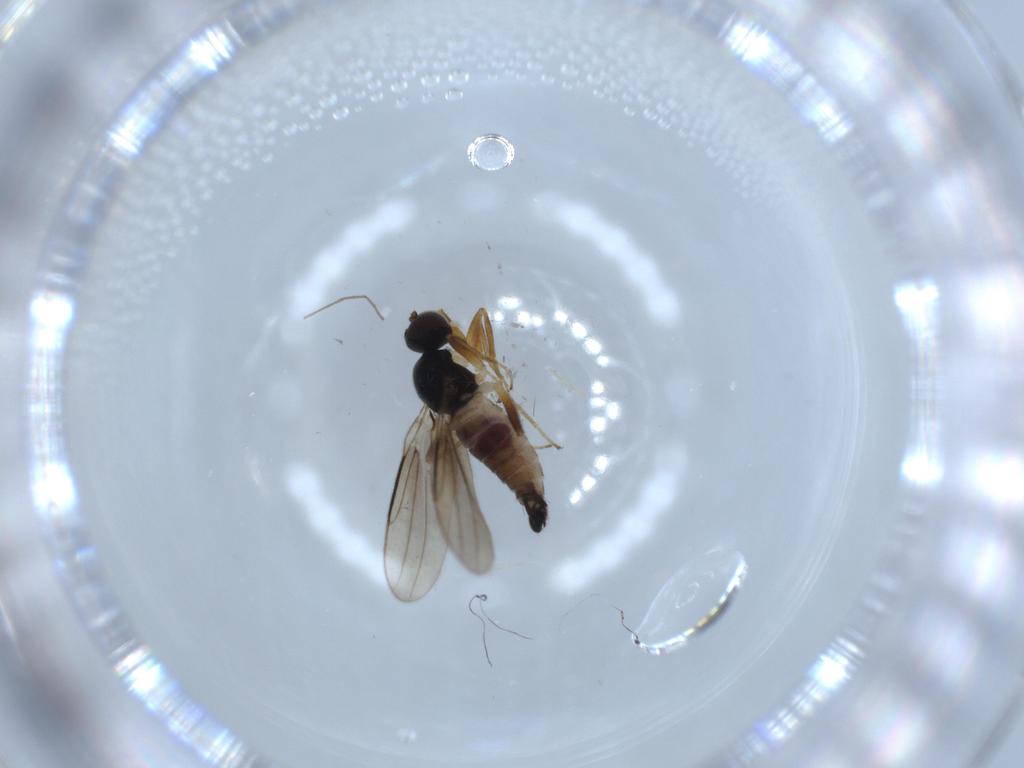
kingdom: Animalia
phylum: Arthropoda
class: Insecta
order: Diptera
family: Hybotidae
